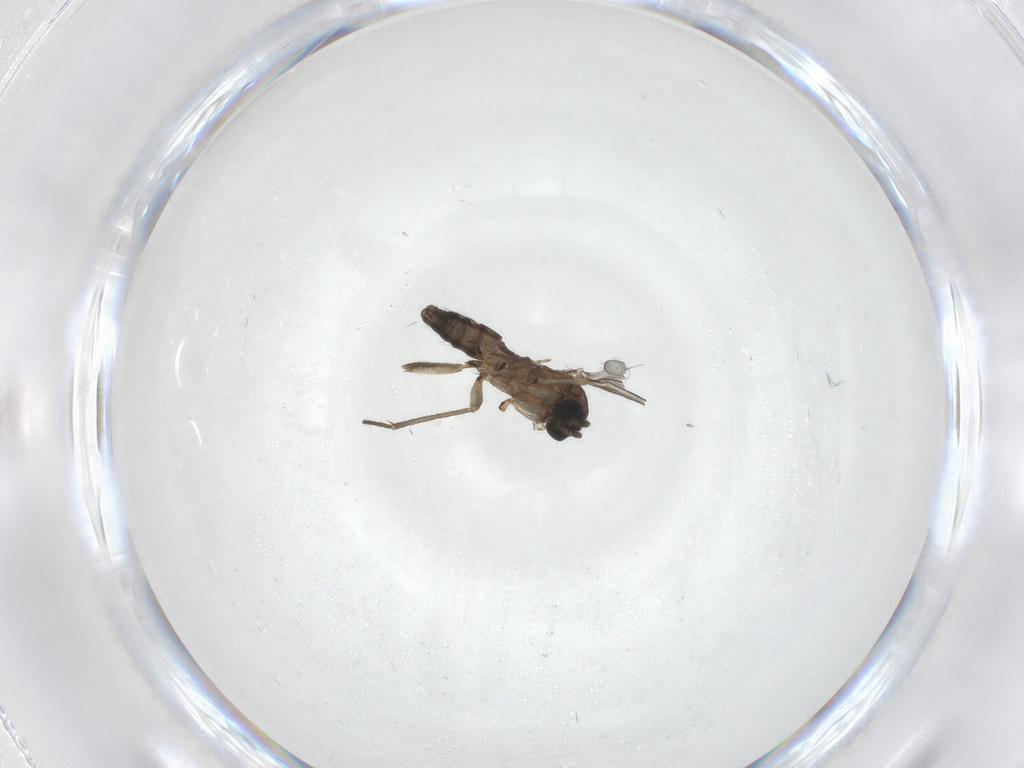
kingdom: Animalia
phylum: Arthropoda
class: Insecta
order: Diptera
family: Sciaridae
